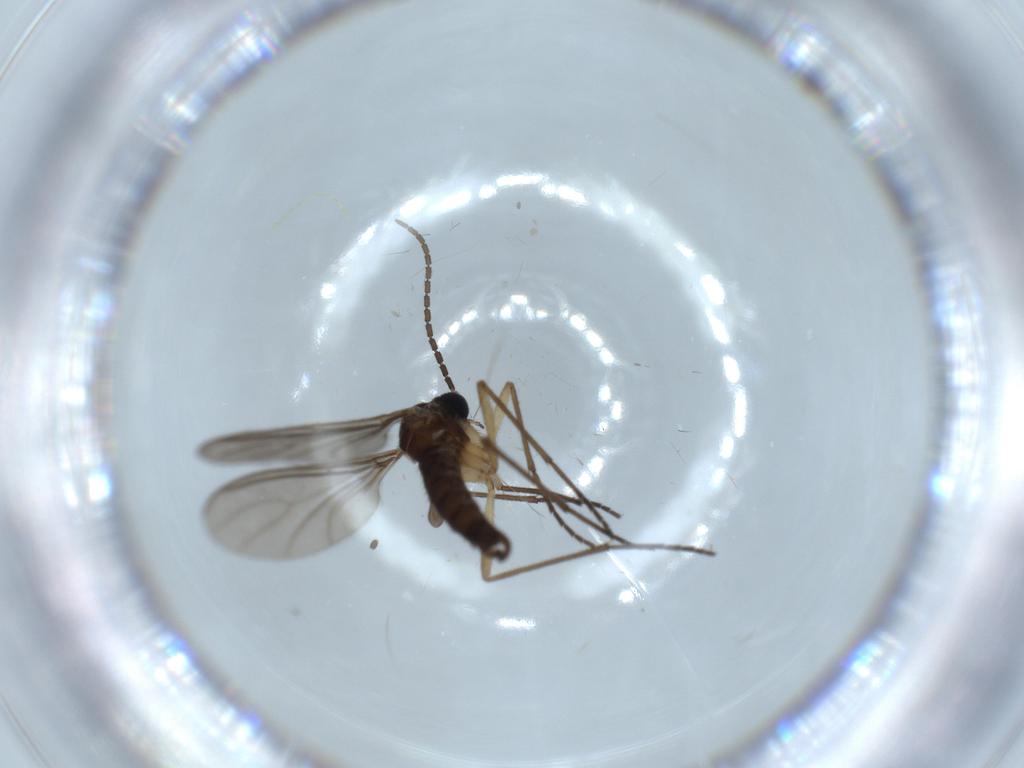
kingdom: Animalia
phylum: Arthropoda
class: Insecta
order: Diptera
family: Sciaridae
